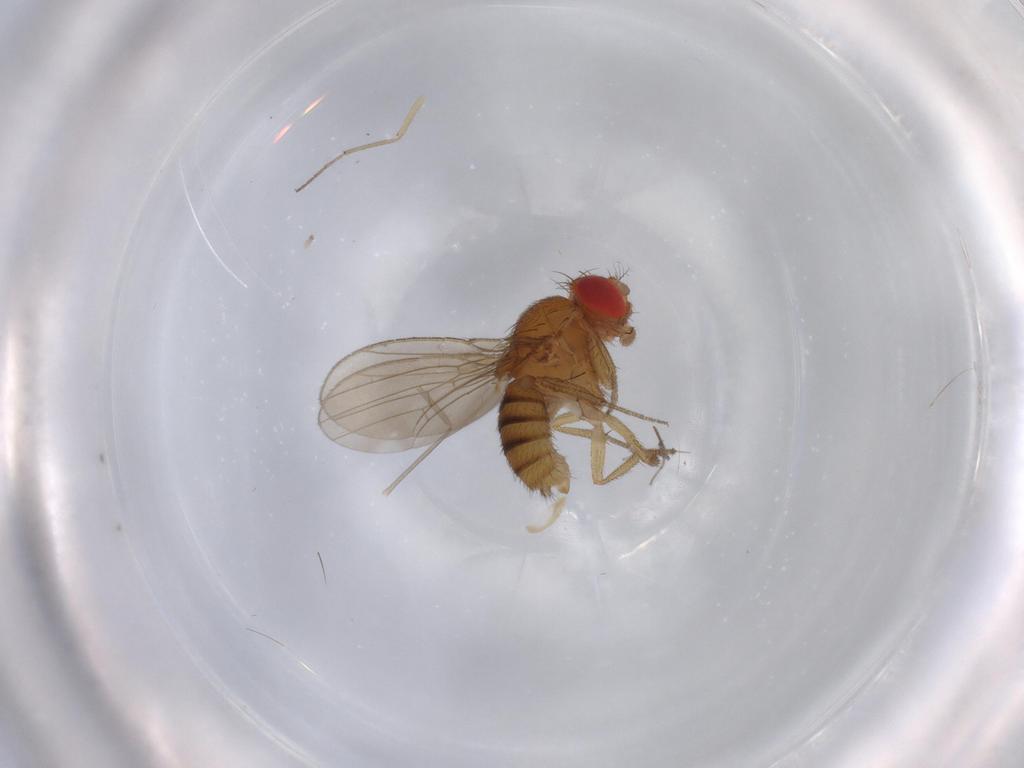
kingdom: Animalia
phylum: Arthropoda
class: Insecta
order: Diptera
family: Drosophilidae
